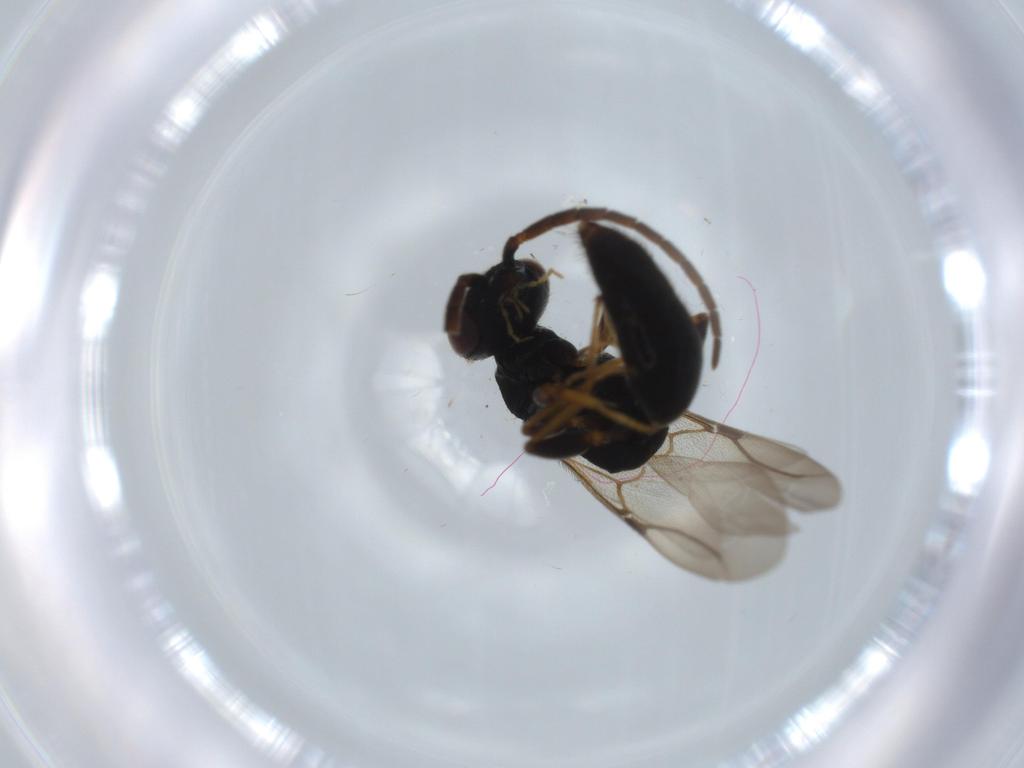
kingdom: Animalia
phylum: Arthropoda
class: Insecta
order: Hymenoptera
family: Bethylidae
